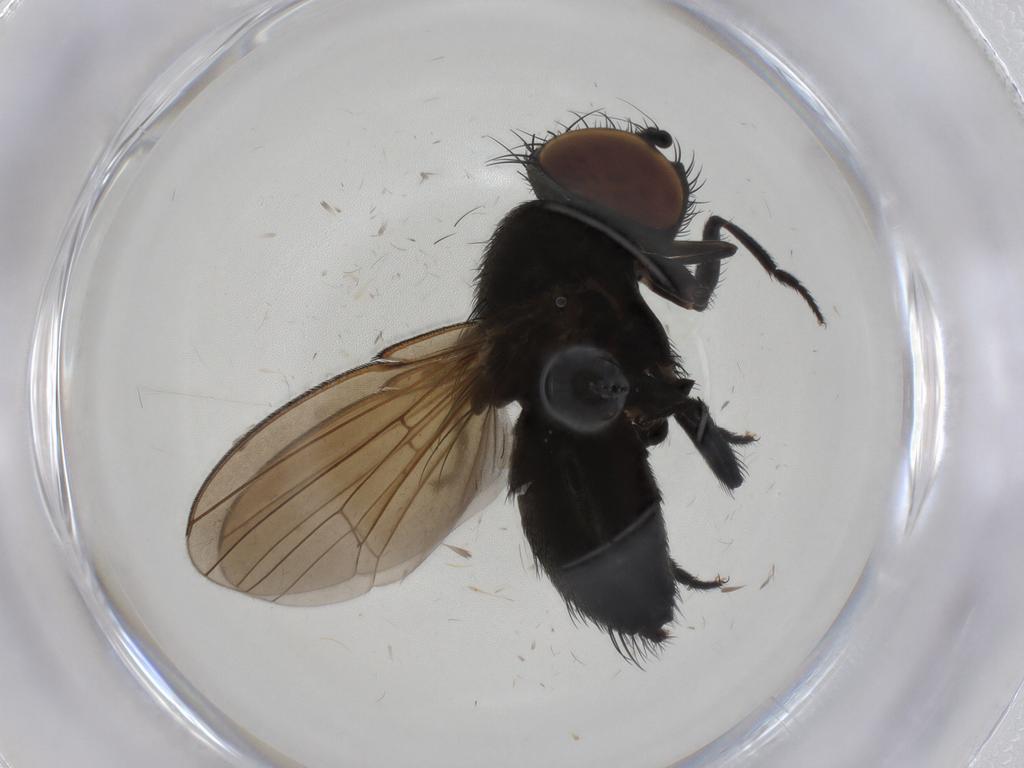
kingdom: Animalia
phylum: Arthropoda
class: Insecta
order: Diptera
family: Milichiidae
